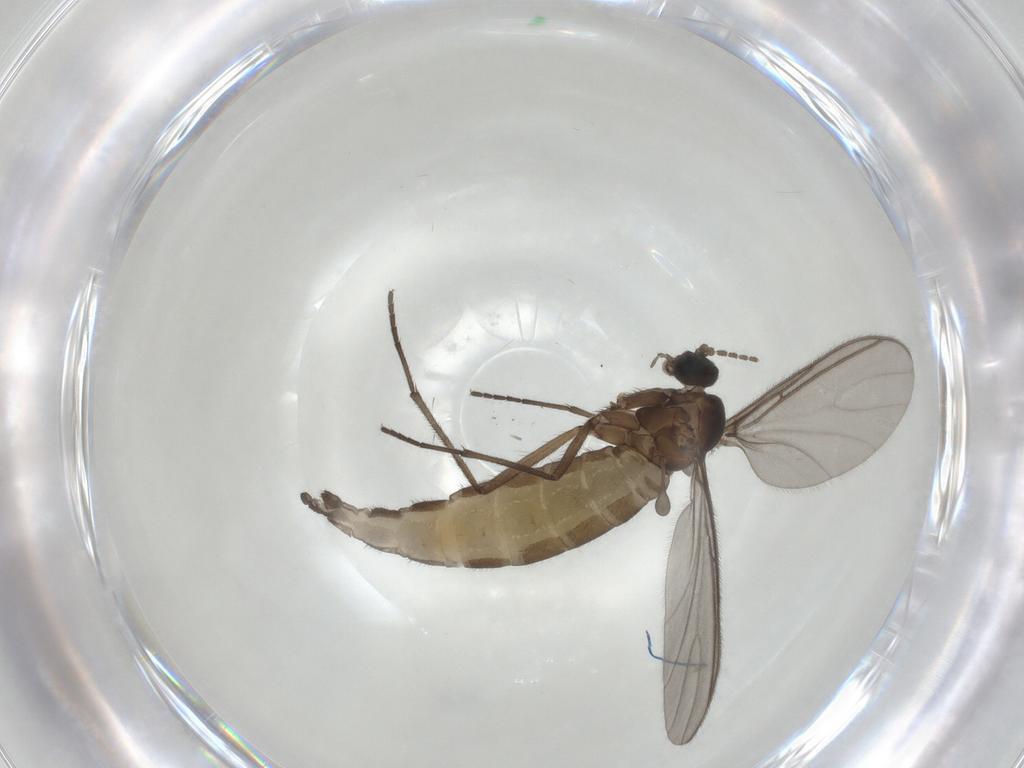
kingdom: Animalia
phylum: Arthropoda
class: Insecta
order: Diptera
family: Sciaridae
